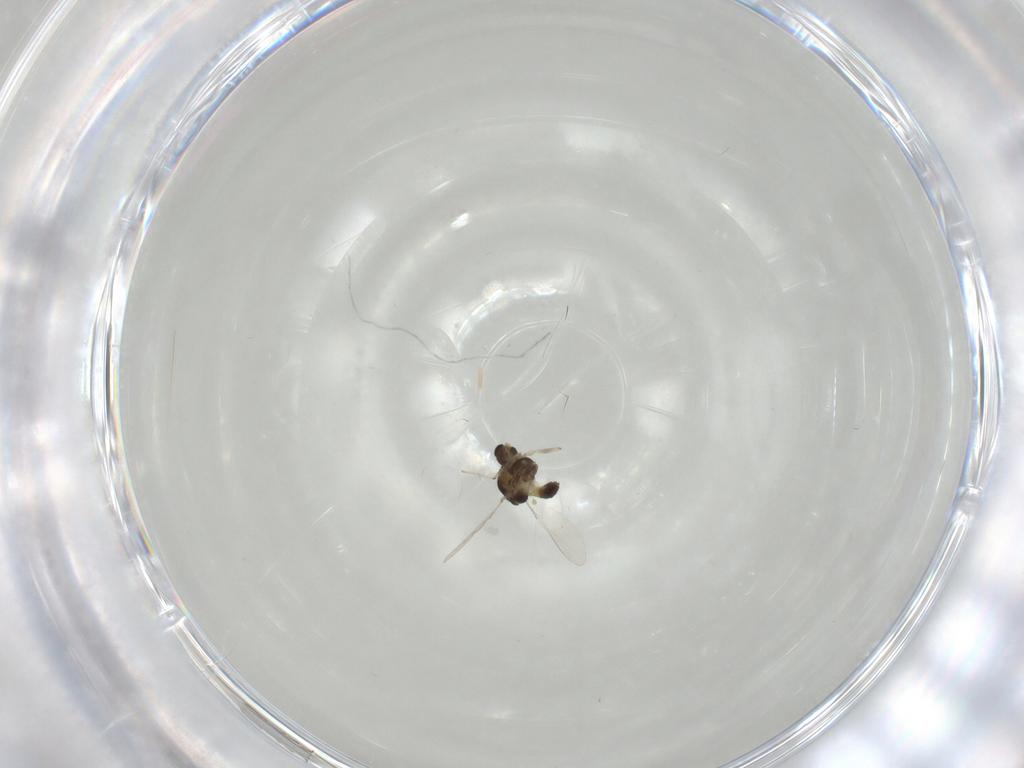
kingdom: Animalia
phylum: Arthropoda
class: Insecta
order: Diptera
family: Chironomidae
